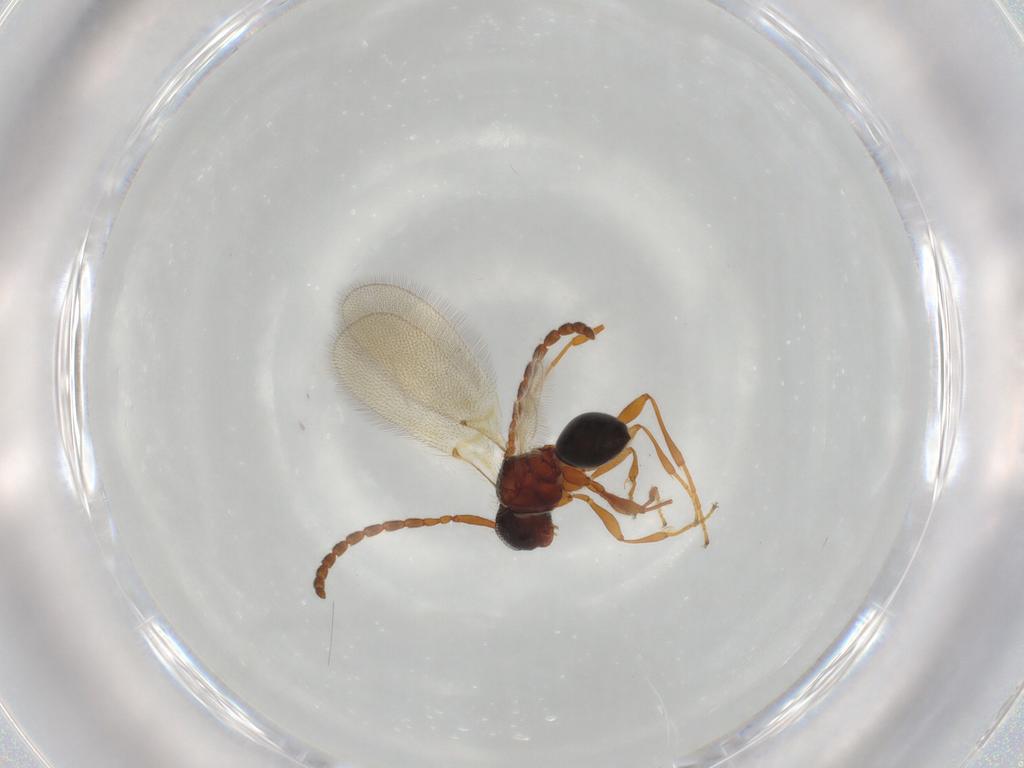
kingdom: Animalia
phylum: Arthropoda
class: Insecta
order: Hymenoptera
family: Diapriidae
